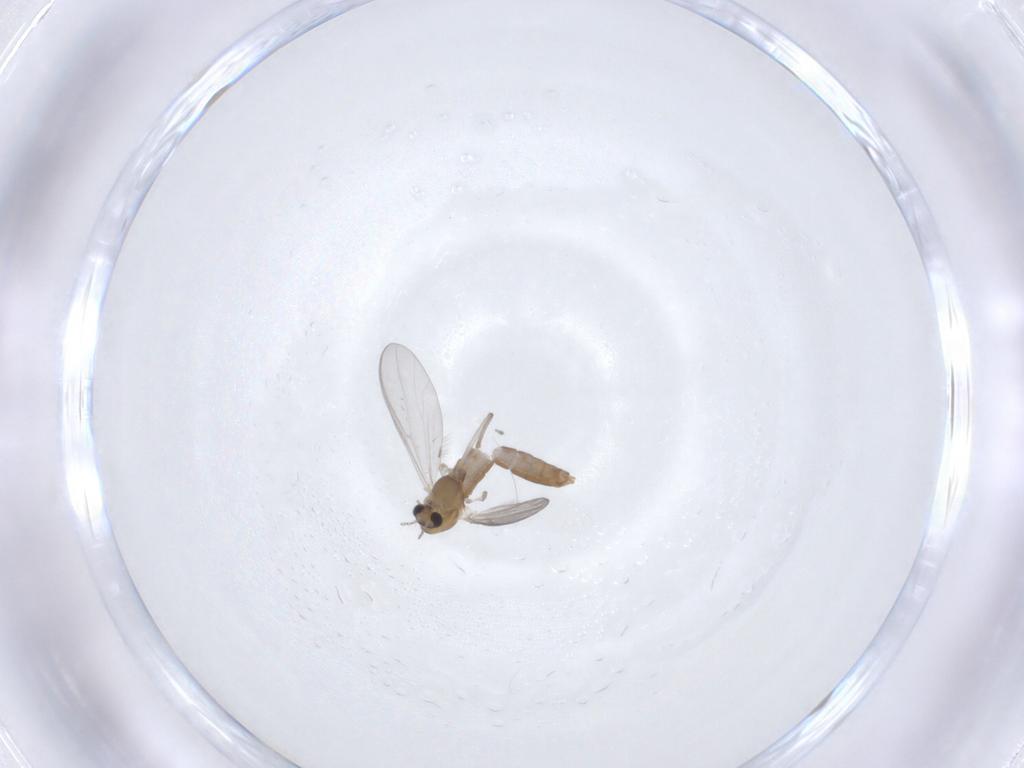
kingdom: Animalia
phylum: Arthropoda
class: Insecta
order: Diptera
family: Chironomidae
